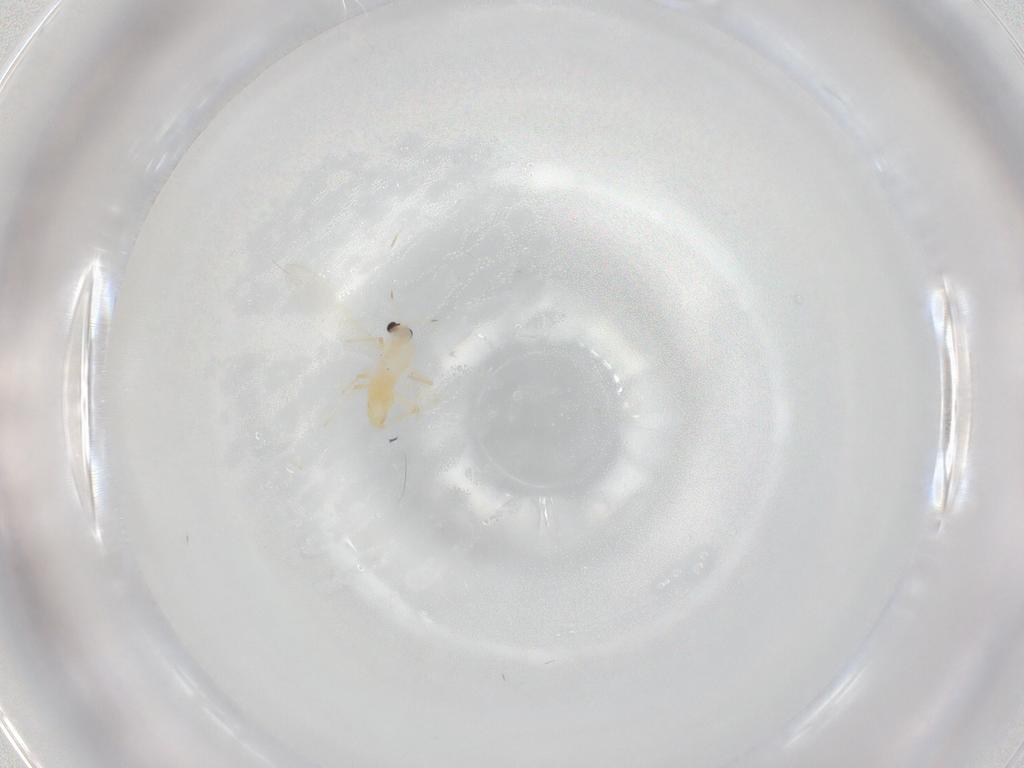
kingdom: Animalia
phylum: Arthropoda
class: Insecta
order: Diptera
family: Chironomidae
